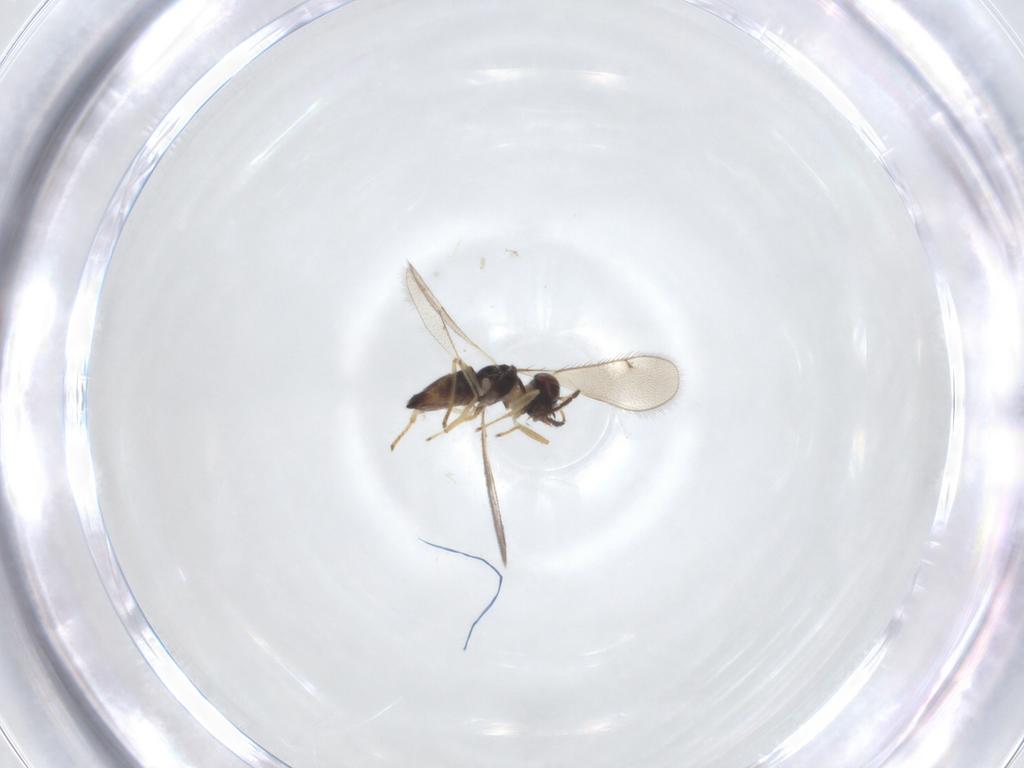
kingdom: Animalia
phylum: Arthropoda
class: Insecta
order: Hymenoptera
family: Eulophidae
